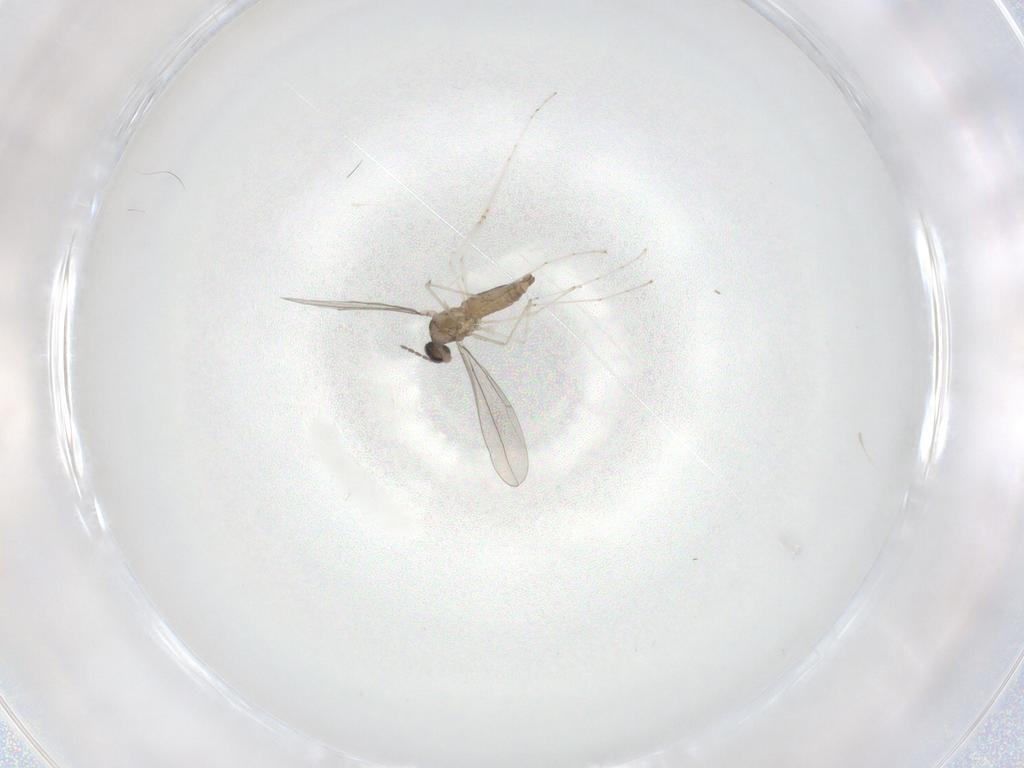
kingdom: Animalia
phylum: Arthropoda
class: Insecta
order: Diptera
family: Cecidomyiidae
